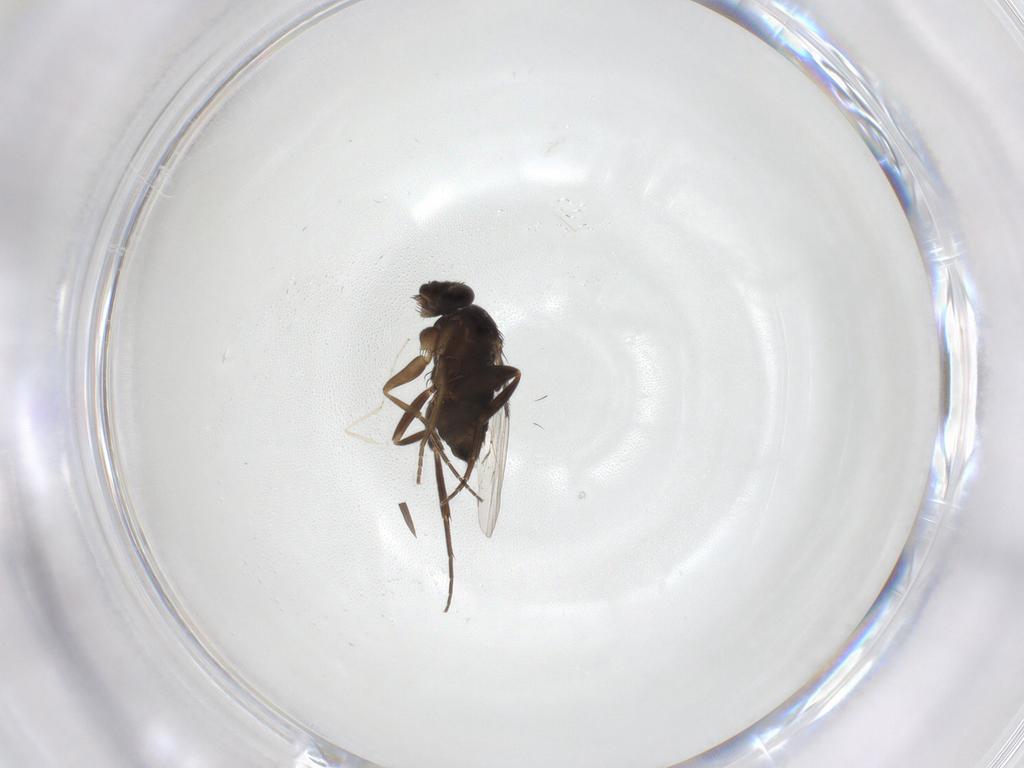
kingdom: Animalia
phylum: Arthropoda
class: Insecta
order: Diptera
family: Phoridae
